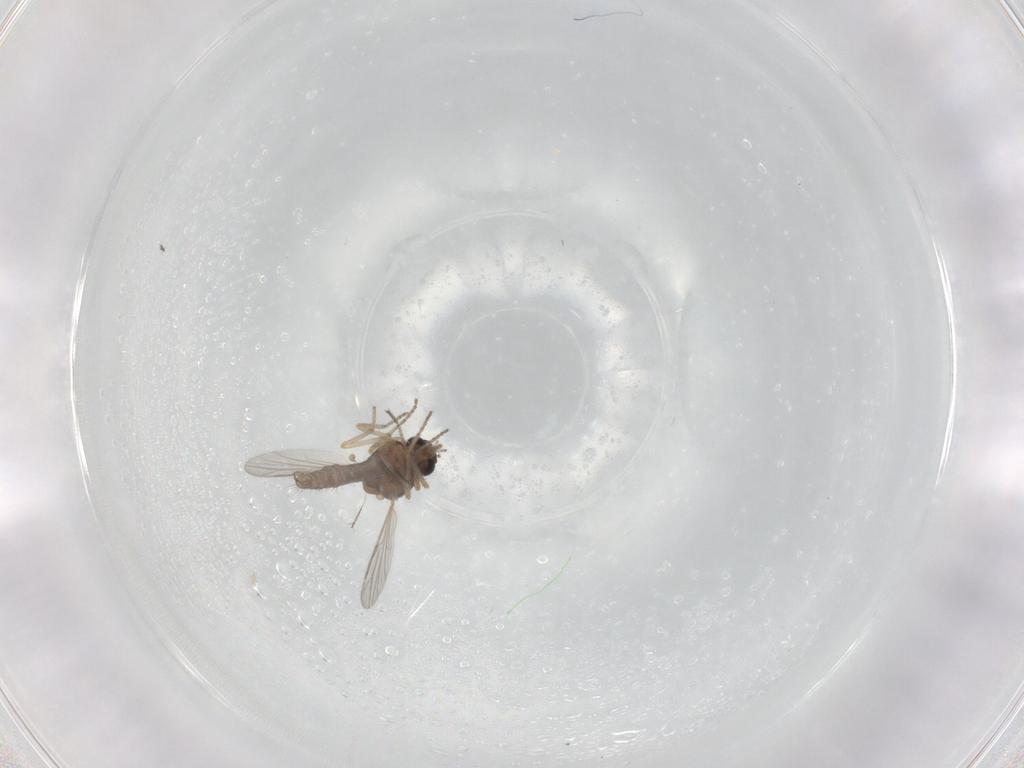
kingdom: Animalia
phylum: Arthropoda
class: Insecta
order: Diptera
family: Ceratopogonidae
